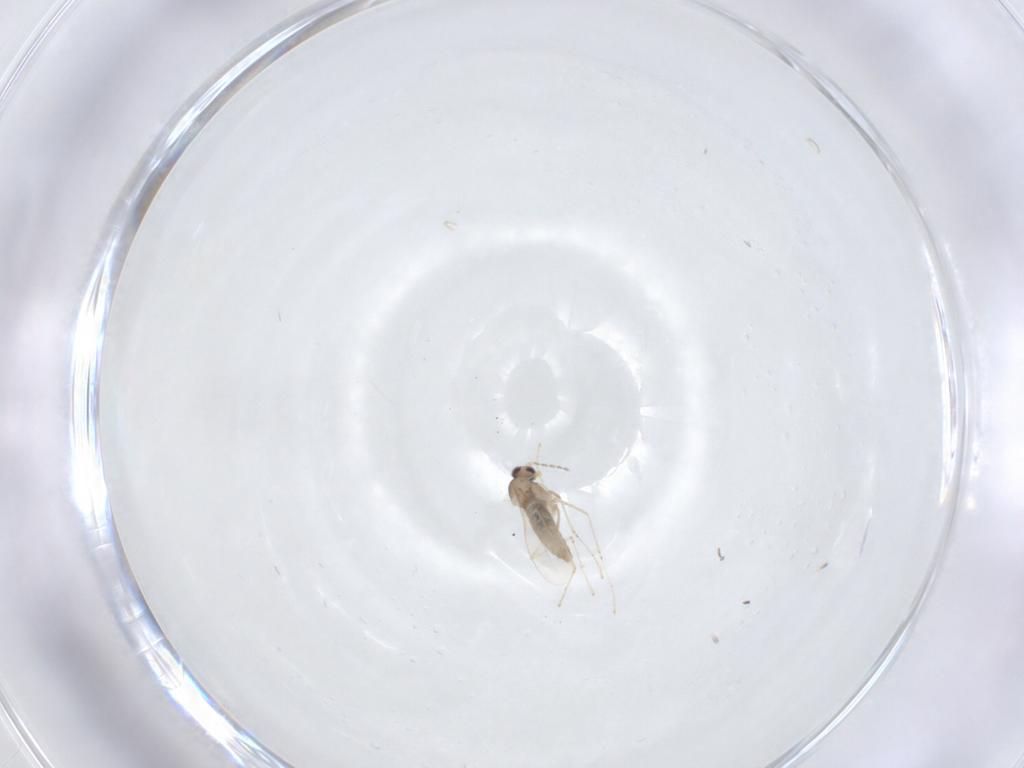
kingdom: Animalia
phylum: Arthropoda
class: Insecta
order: Diptera
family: Cecidomyiidae
